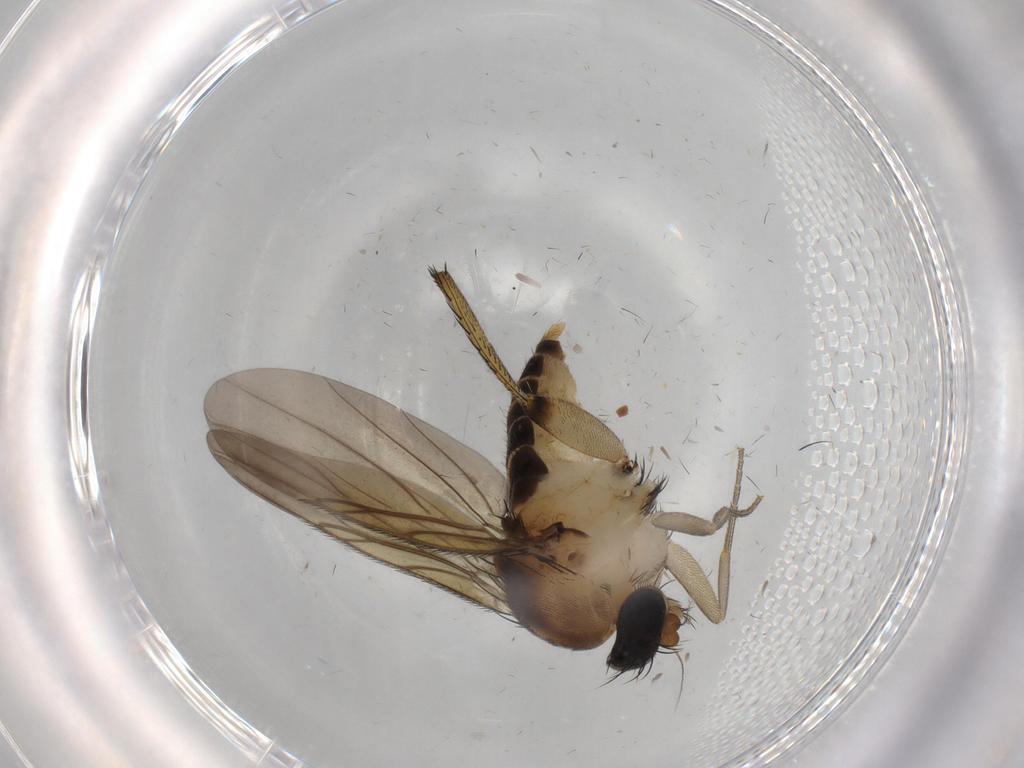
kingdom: Animalia
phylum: Arthropoda
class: Insecta
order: Diptera
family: Phoridae
